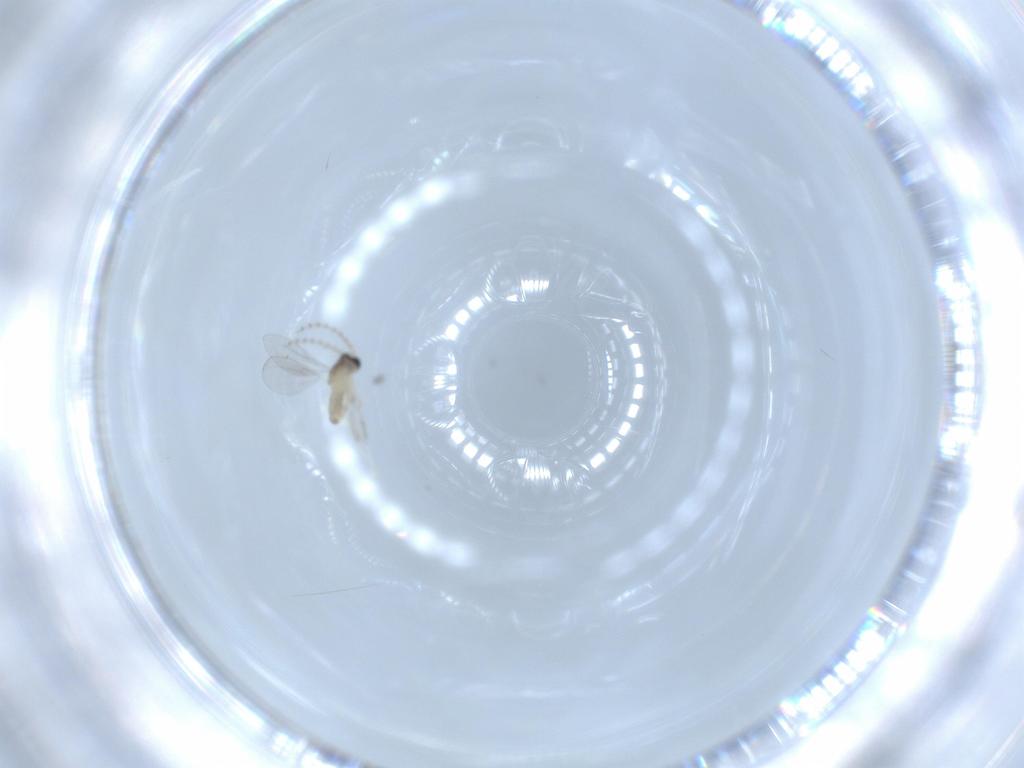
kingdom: Animalia
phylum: Arthropoda
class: Insecta
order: Diptera
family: Cecidomyiidae
